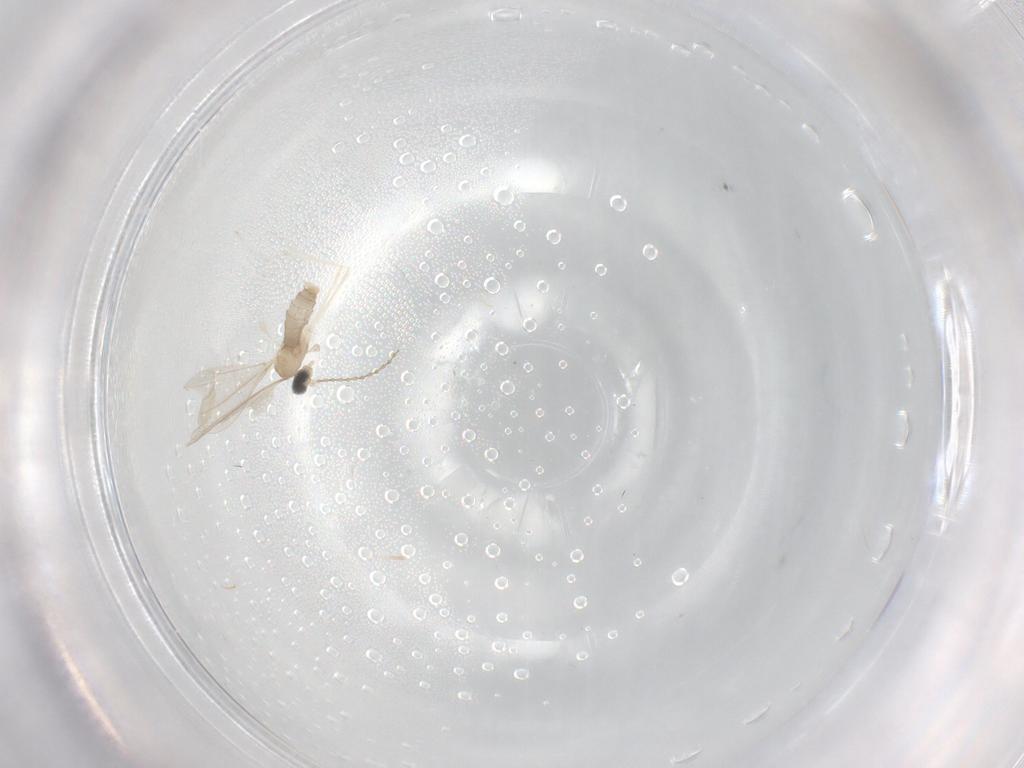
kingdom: Animalia
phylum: Arthropoda
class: Insecta
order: Diptera
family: Cecidomyiidae
